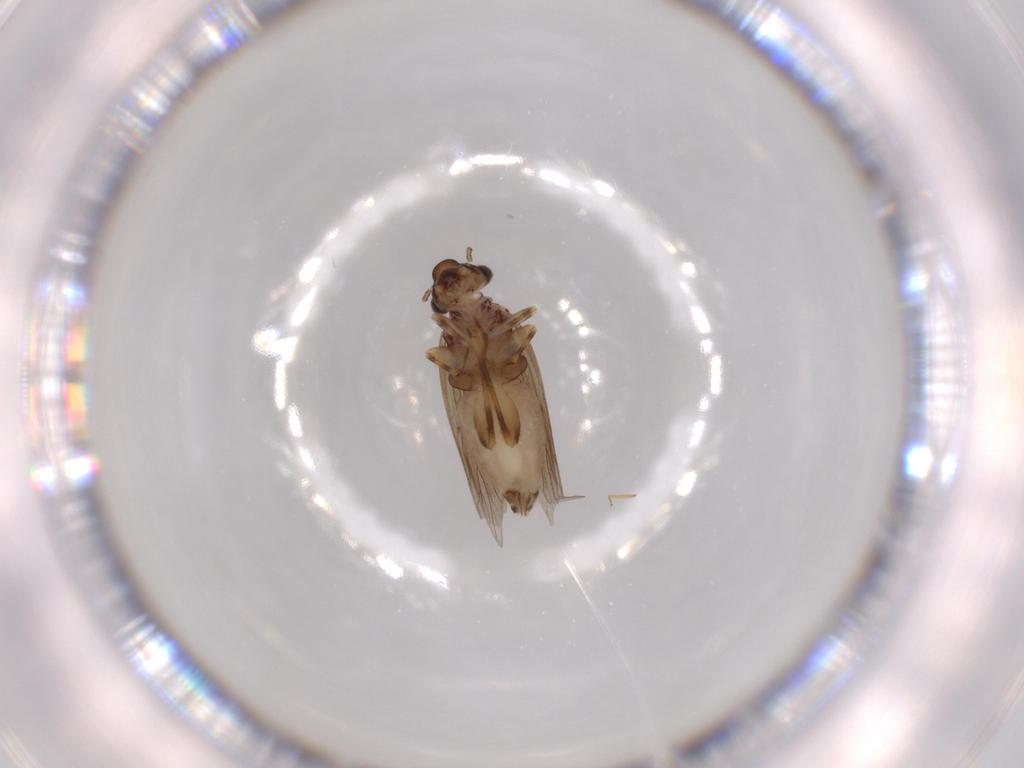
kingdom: Animalia
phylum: Arthropoda
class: Insecta
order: Psocodea
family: Lepidopsocidae
